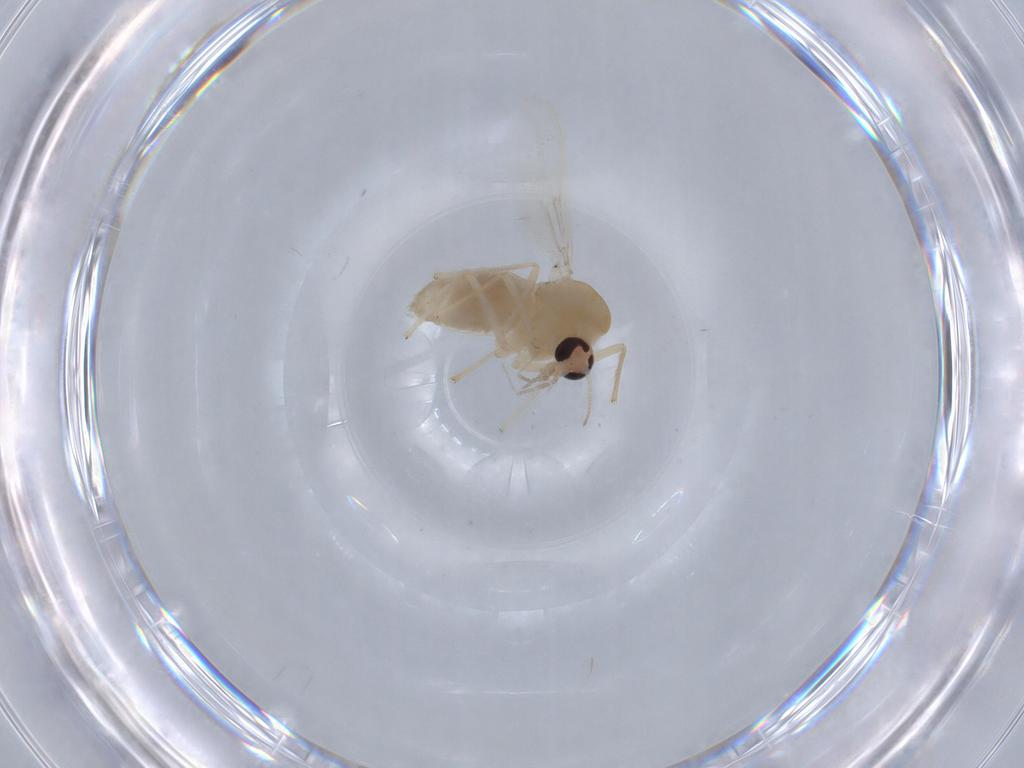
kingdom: Animalia
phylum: Arthropoda
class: Insecta
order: Diptera
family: Chironomidae
